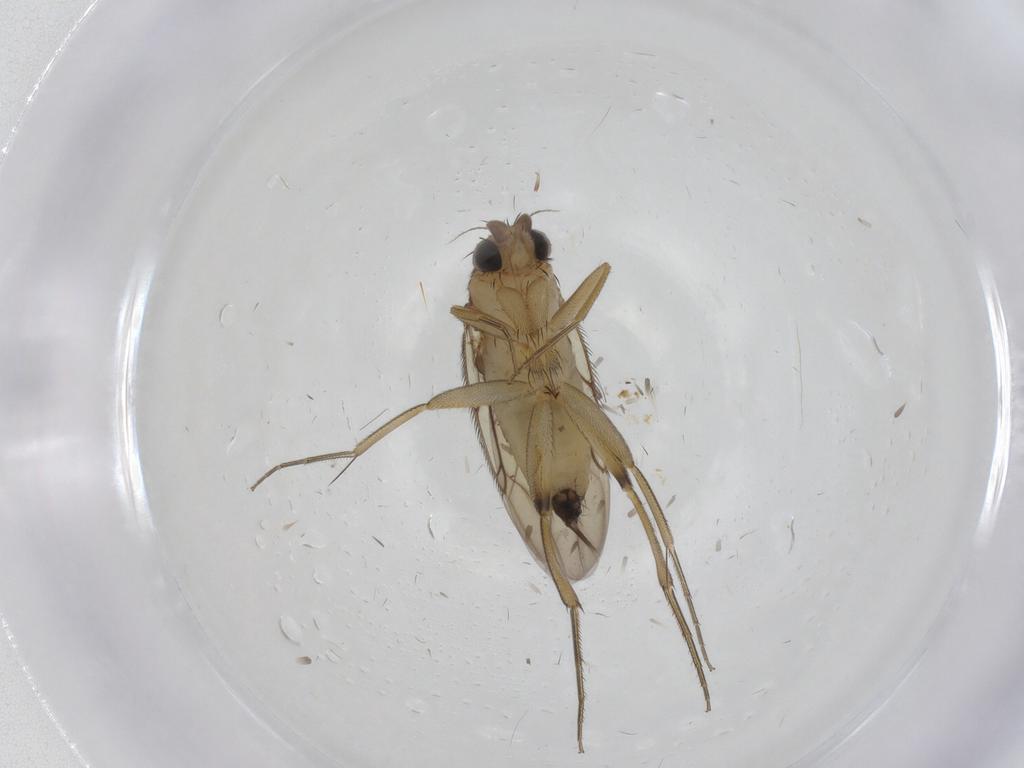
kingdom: Animalia
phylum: Arthropoda
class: Insecta
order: Diptera
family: Phoridae
